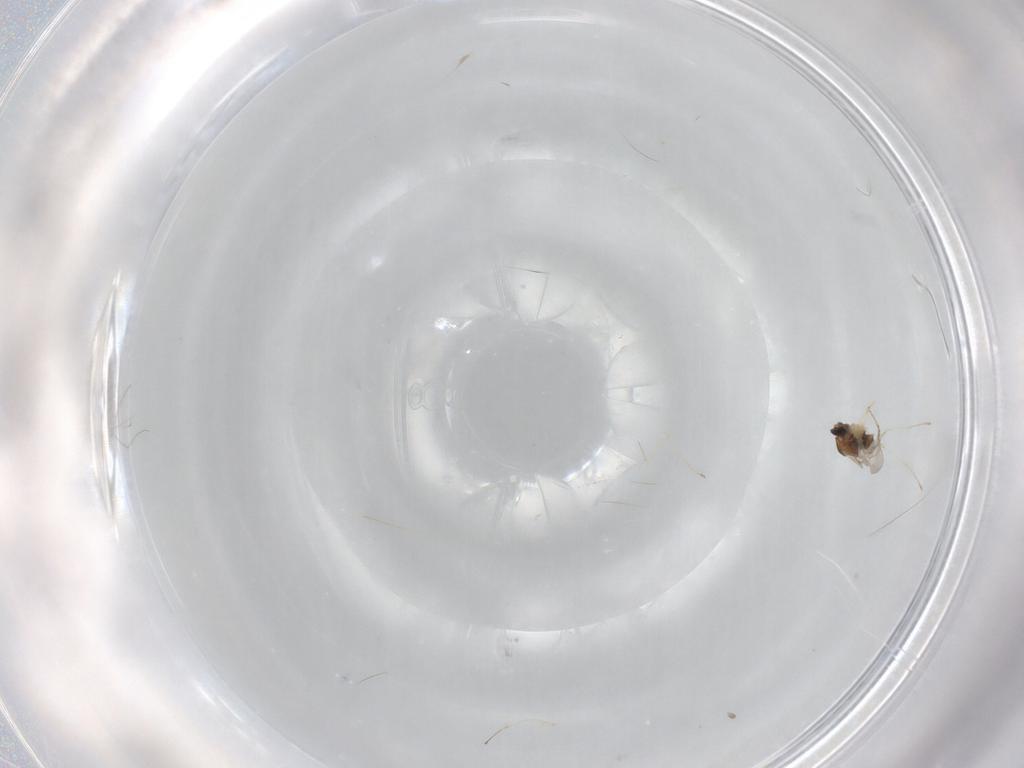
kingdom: Animalia
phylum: Arthropoda
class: Insecta
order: Diptera
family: Cecidomyiidae
